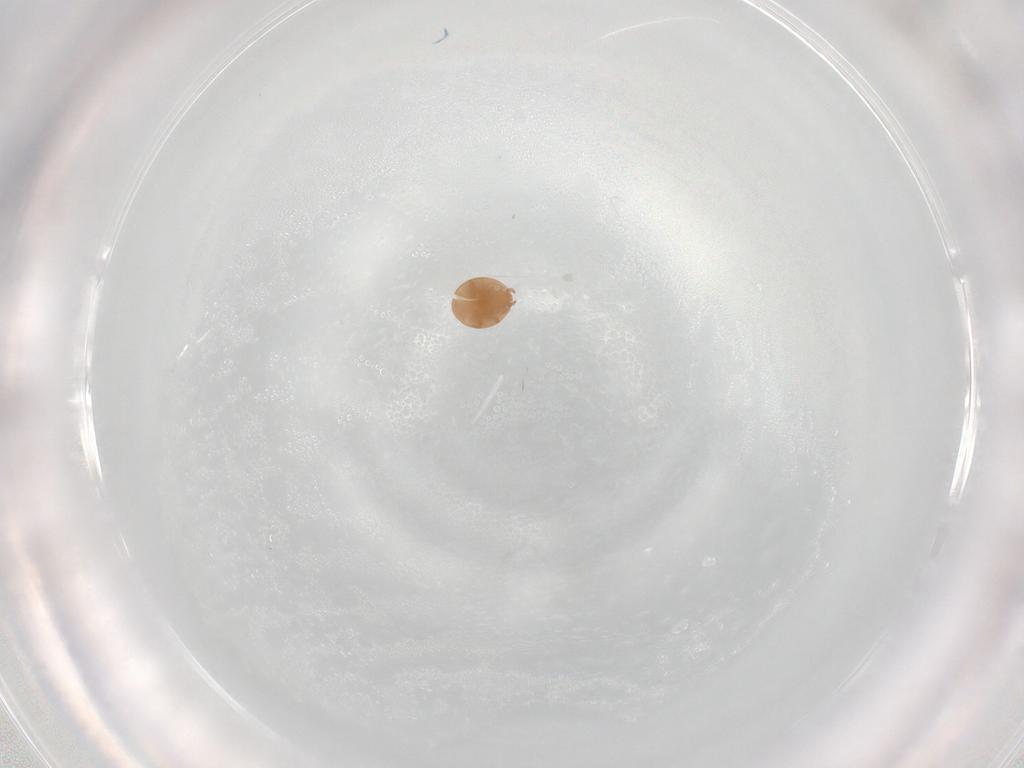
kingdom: Animalia
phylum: Arthropoda
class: Arachnida
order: Mesostigmata
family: Trematuridae
